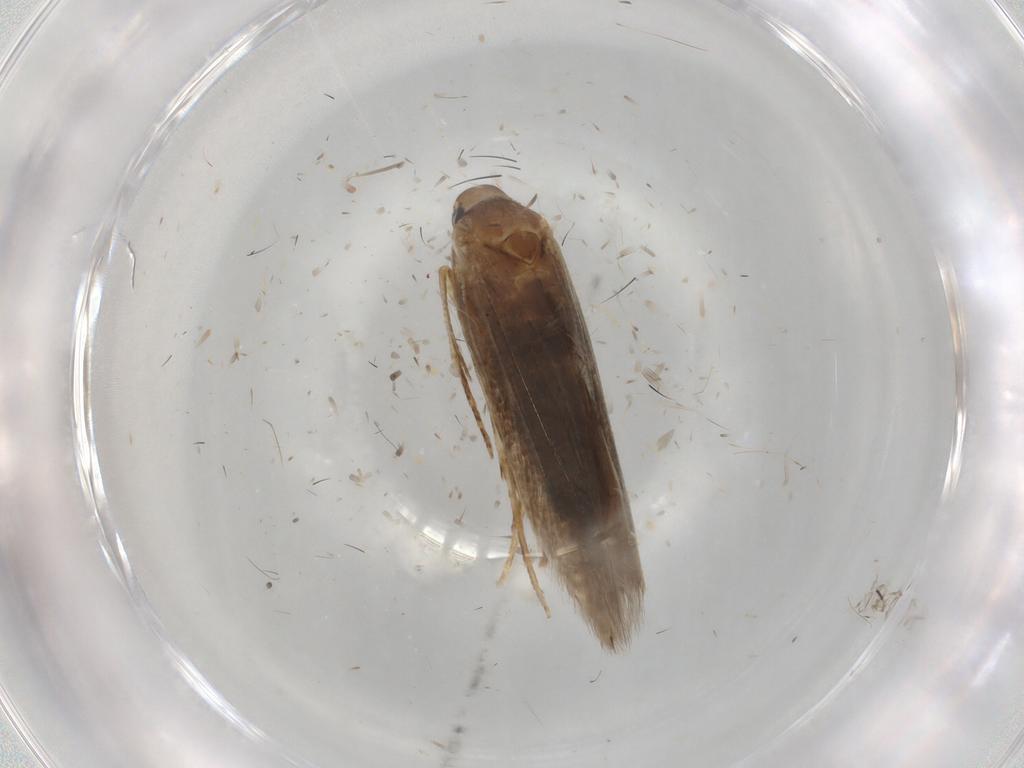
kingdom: Animalia
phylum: Arthropoda
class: Insecta
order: Lepidoptera
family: Cosmopterigidae
